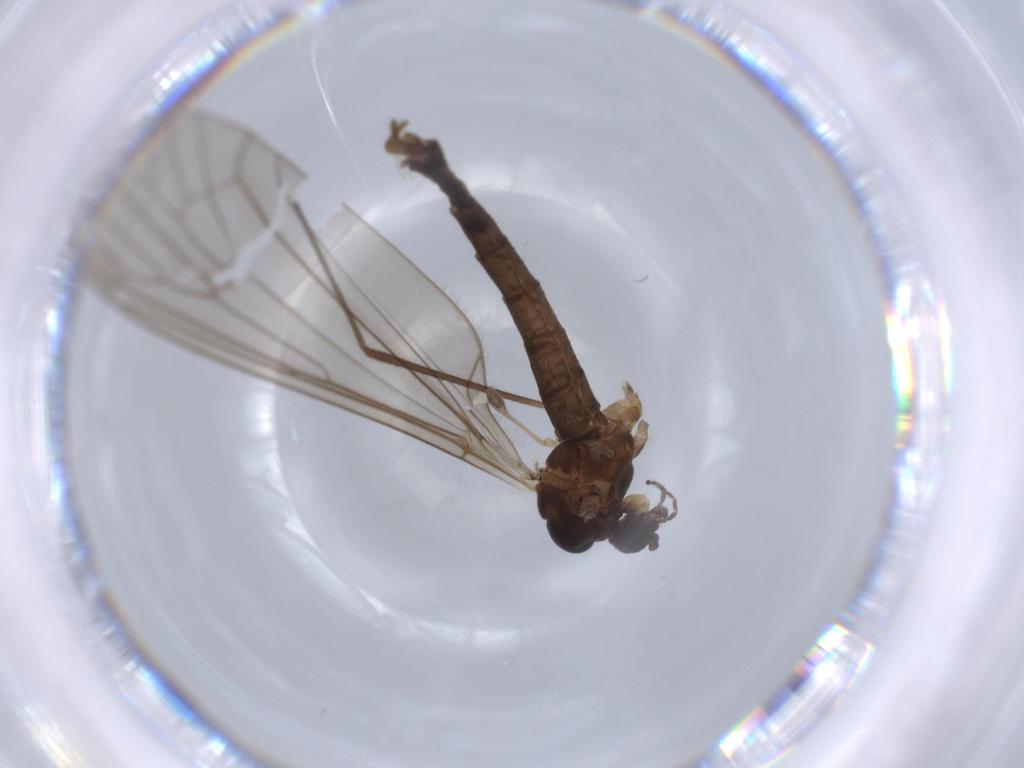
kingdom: Animalia
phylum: Arthropoda
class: Insecta
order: Diptera
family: Trichoceridae
